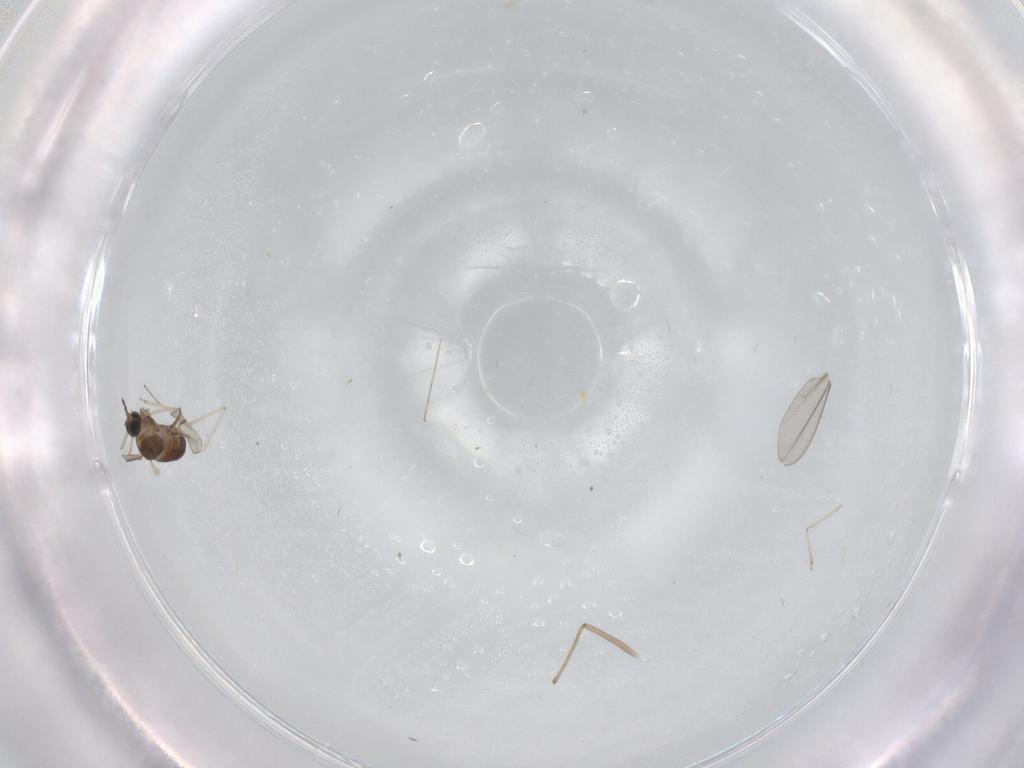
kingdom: Animalia
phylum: Arthropoda
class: Insecta
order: Diptera
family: Cecidomyiidae
